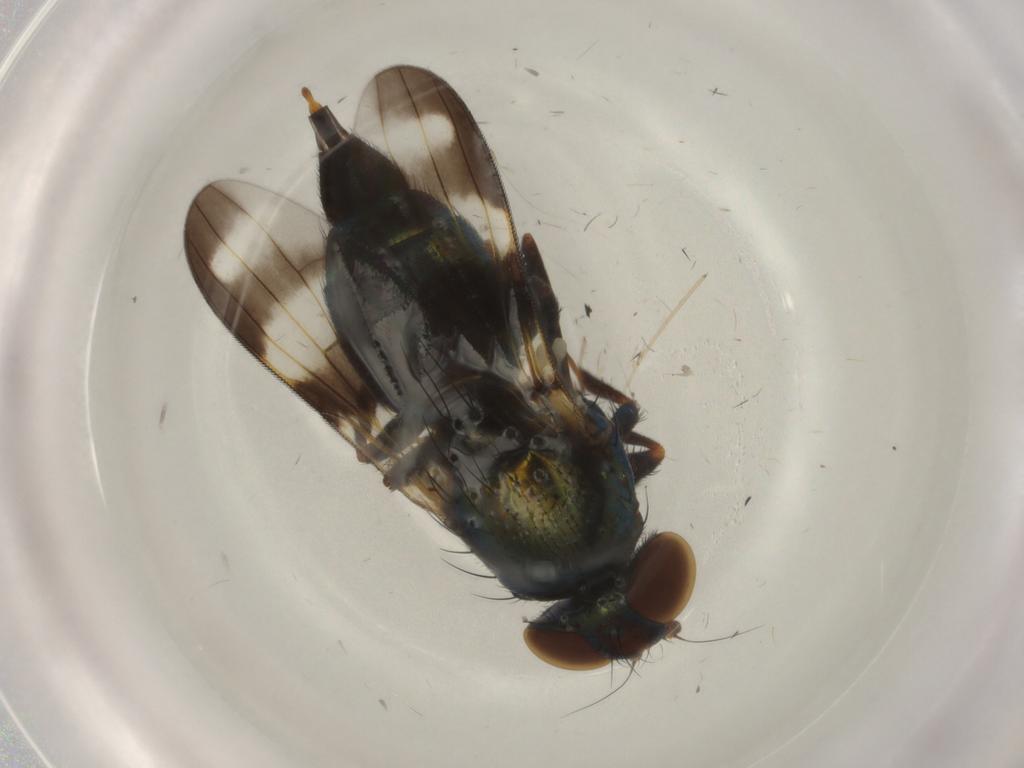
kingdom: Animalia
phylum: Arthropoda
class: Insecta
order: Diptera
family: Ulidiidae
